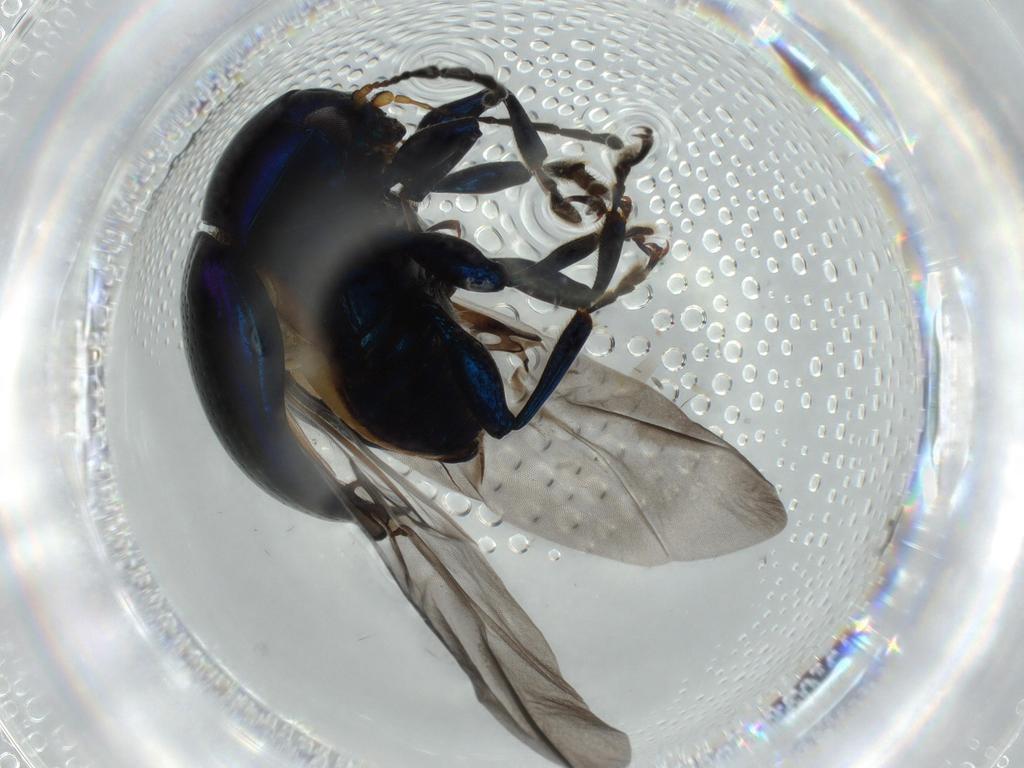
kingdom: Animalia
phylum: Arthropoda
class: Insecta
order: Coleoptera
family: Chrysomelidae
